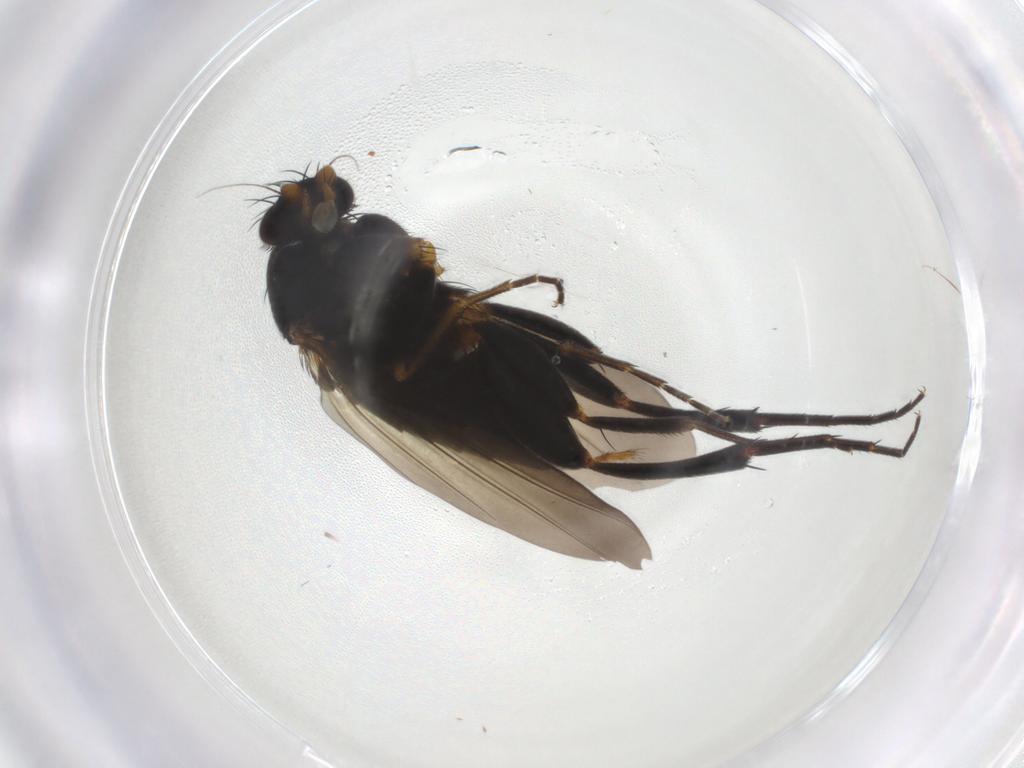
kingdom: Animalia
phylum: Arthropoda
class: Insecta
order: Diptera
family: Phoridae
